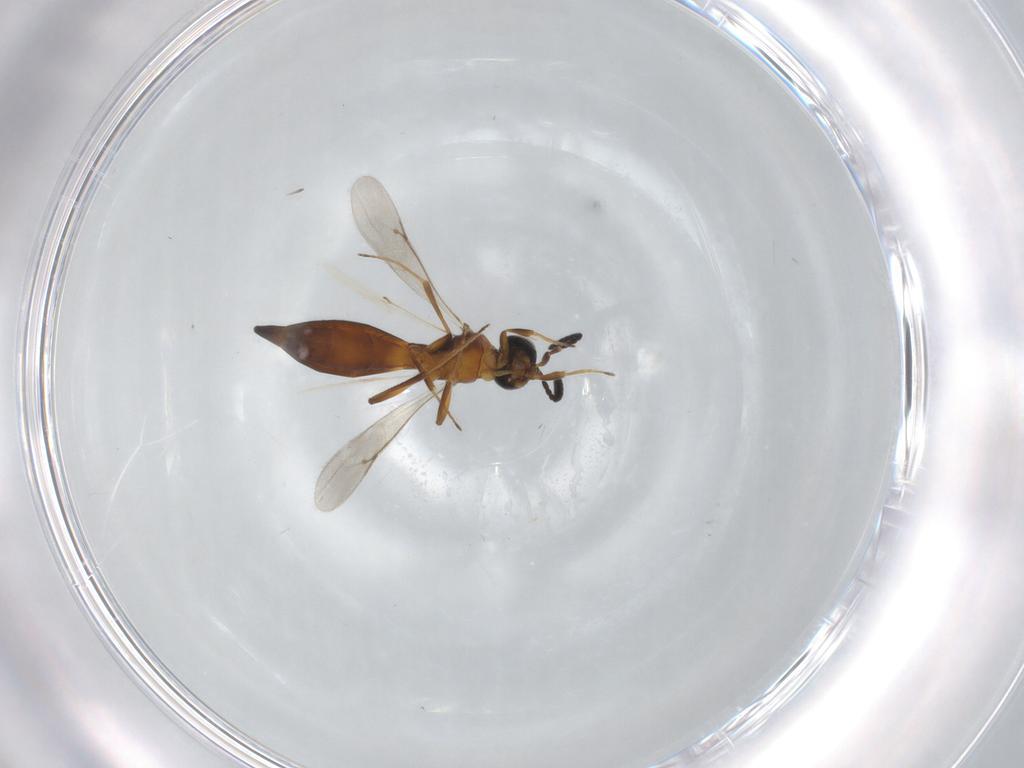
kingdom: Animalia
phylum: Arthropoda
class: Insecta
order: Hymenoptera
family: Scelionidae
